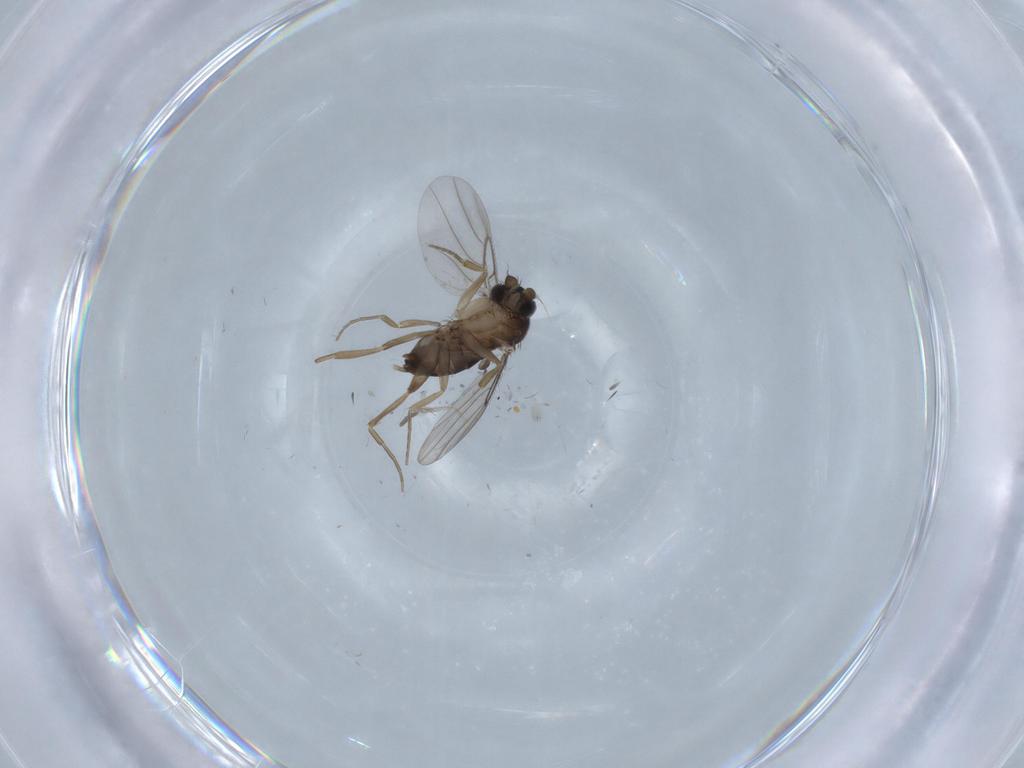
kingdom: Animalia
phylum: Arthropoda
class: Insecta
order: Diptera
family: Phoridae
